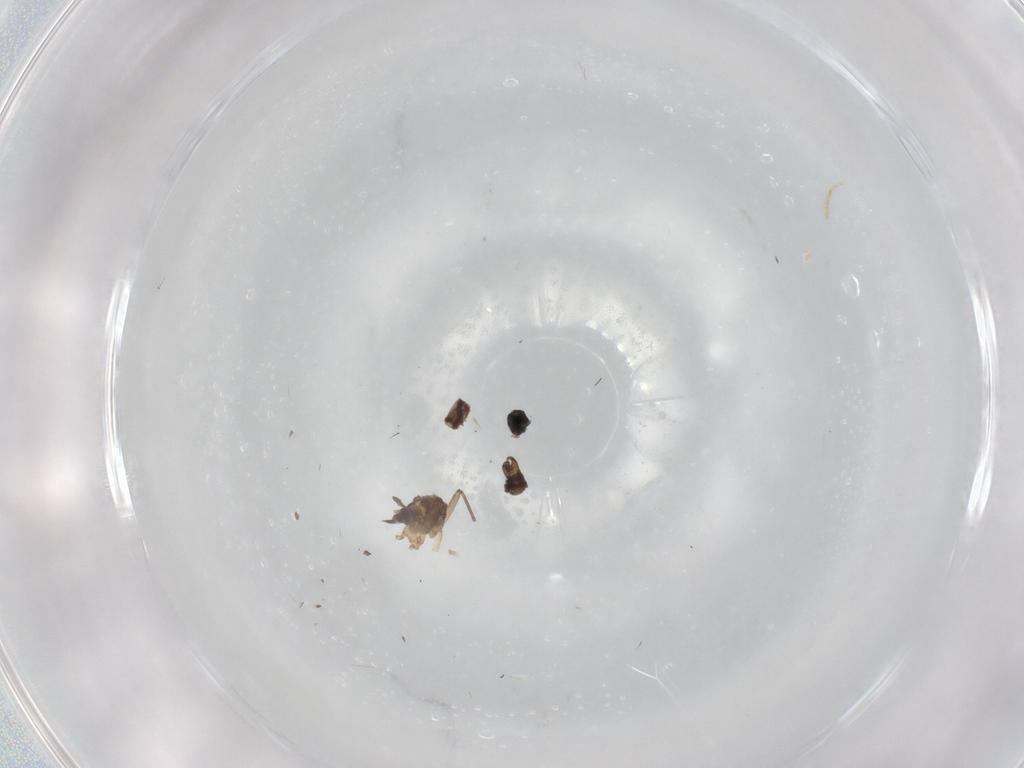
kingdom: Animalia
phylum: Arthropoda
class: Insecta
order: Diptera
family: Sciaridae
